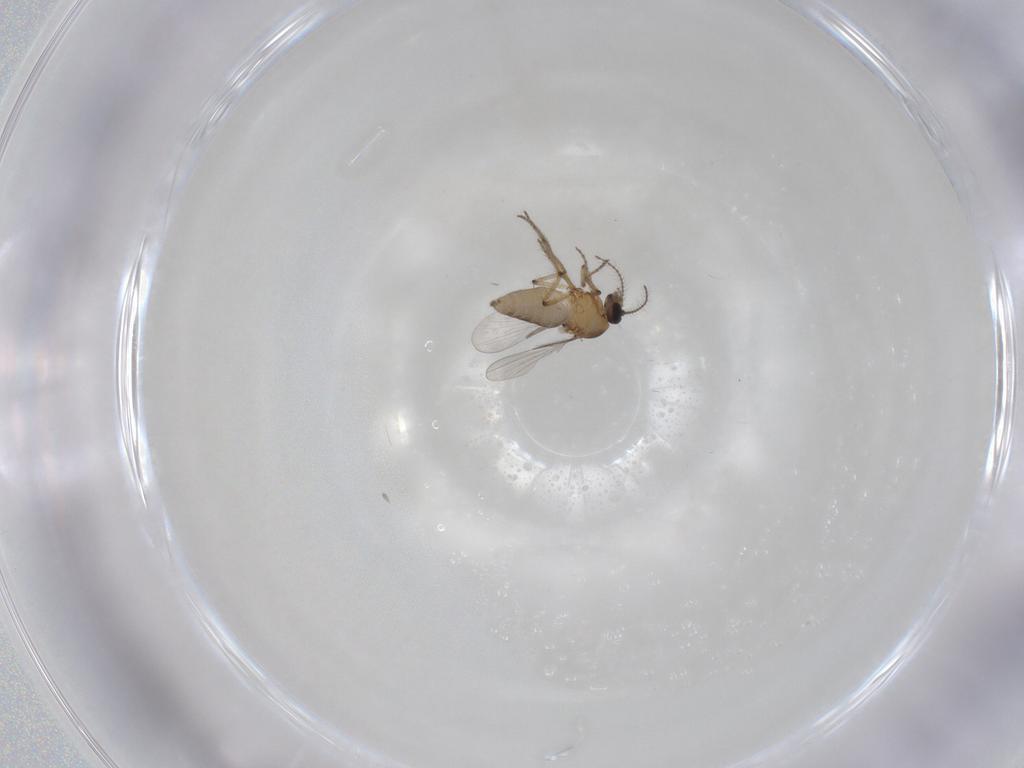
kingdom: Animalia
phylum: Arthropoda
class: Insecta
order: Diptera
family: Ceratopogonidae
